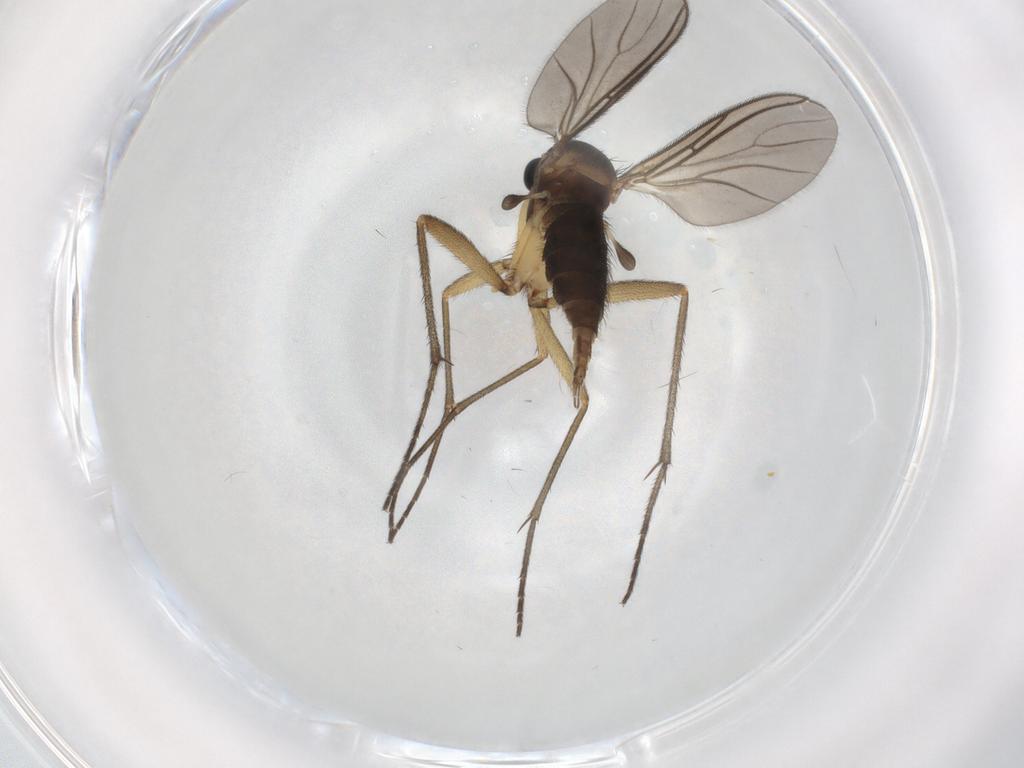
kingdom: Animalia
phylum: Arthropoda
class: Insecta
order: Diptera
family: Sciaridae
